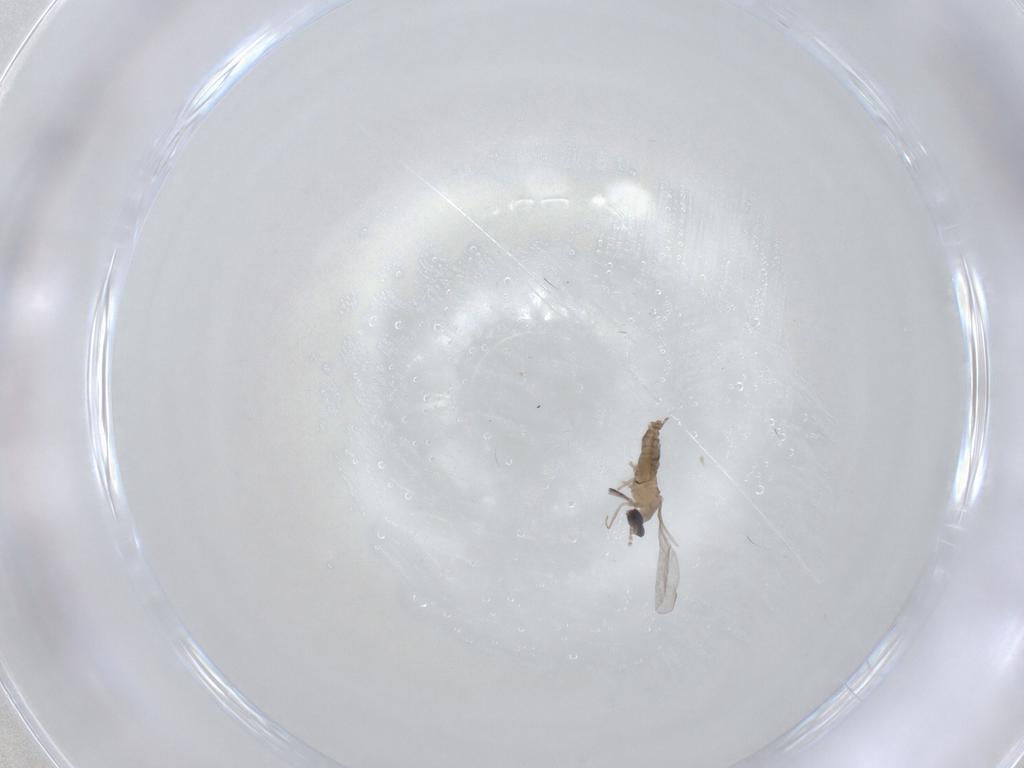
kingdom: Animalia
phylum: Arthropoda
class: Insecta
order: Diptera
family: Cecidomyiidae
